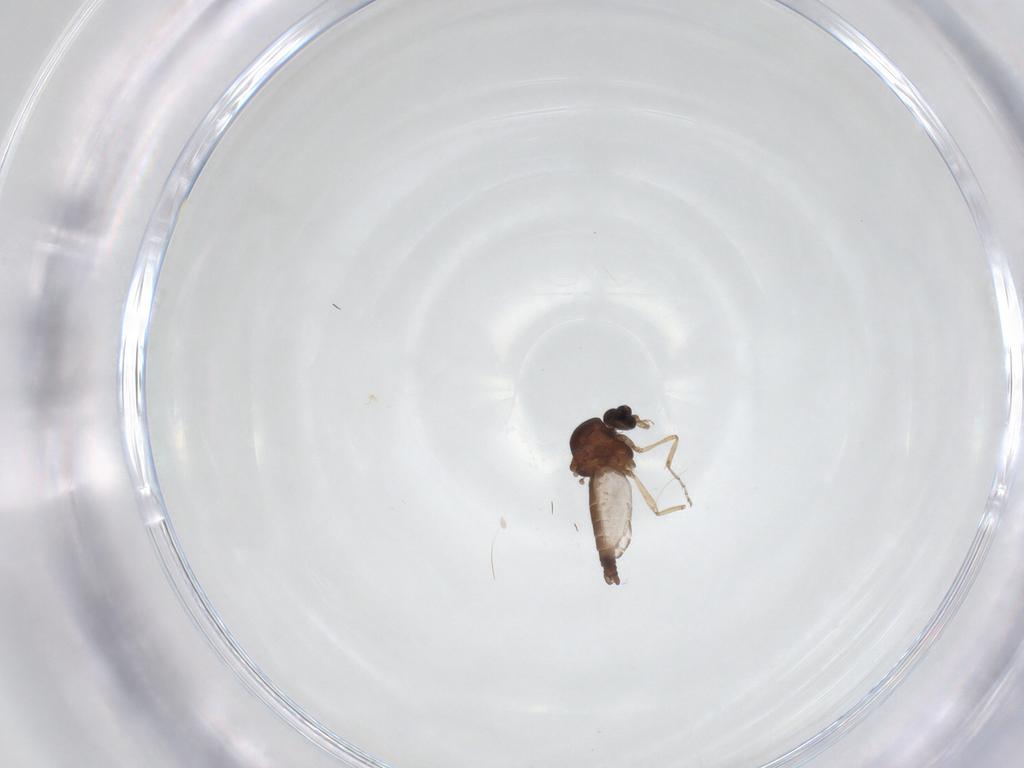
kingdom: Animalia
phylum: Arthropoda
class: Insecta
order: Diptera
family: Ceratopogonidae
